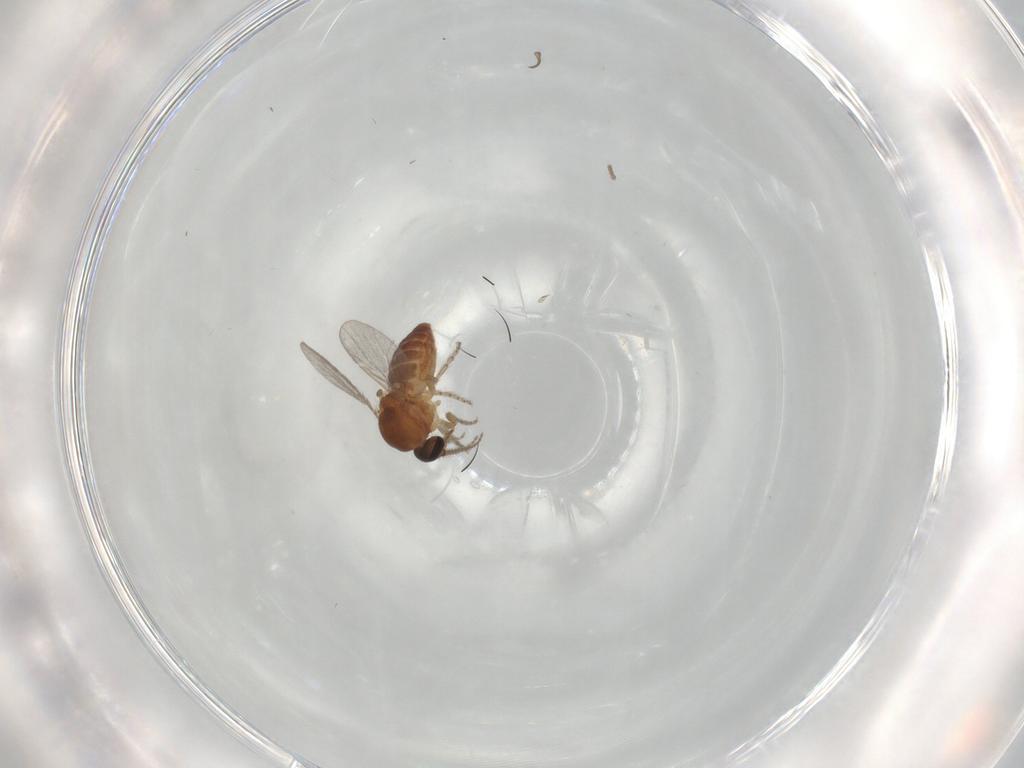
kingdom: Animalia
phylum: Arthropoda
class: Insecta
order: Diptera
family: Ceratopogonidae
